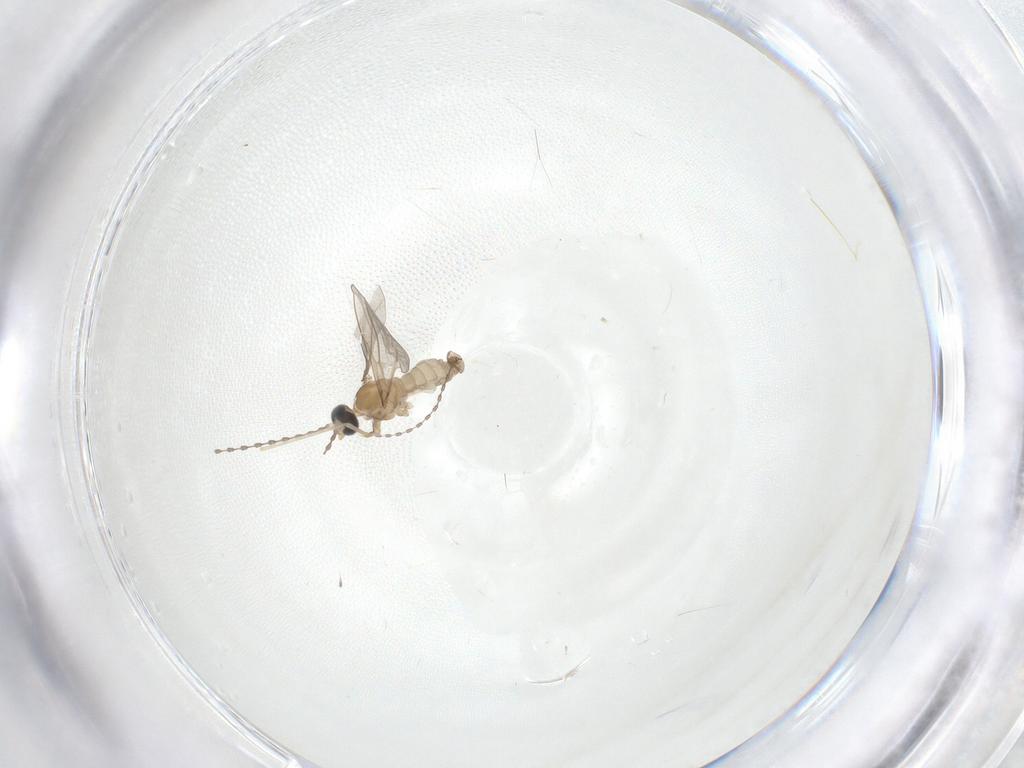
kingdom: Animalia
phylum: Arthropoda
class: Insecta
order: Diptera
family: Cecidomyiidae
